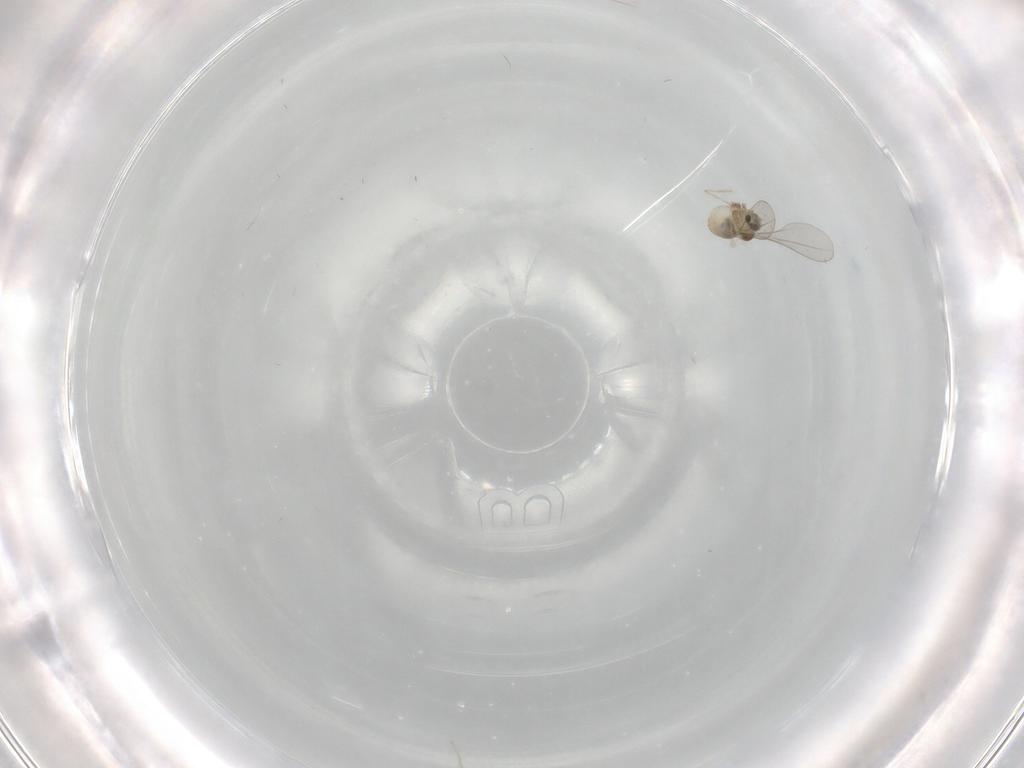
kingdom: Animalia
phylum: Arthropoda
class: Insecta
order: Diptera
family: Cecidomyiidae
